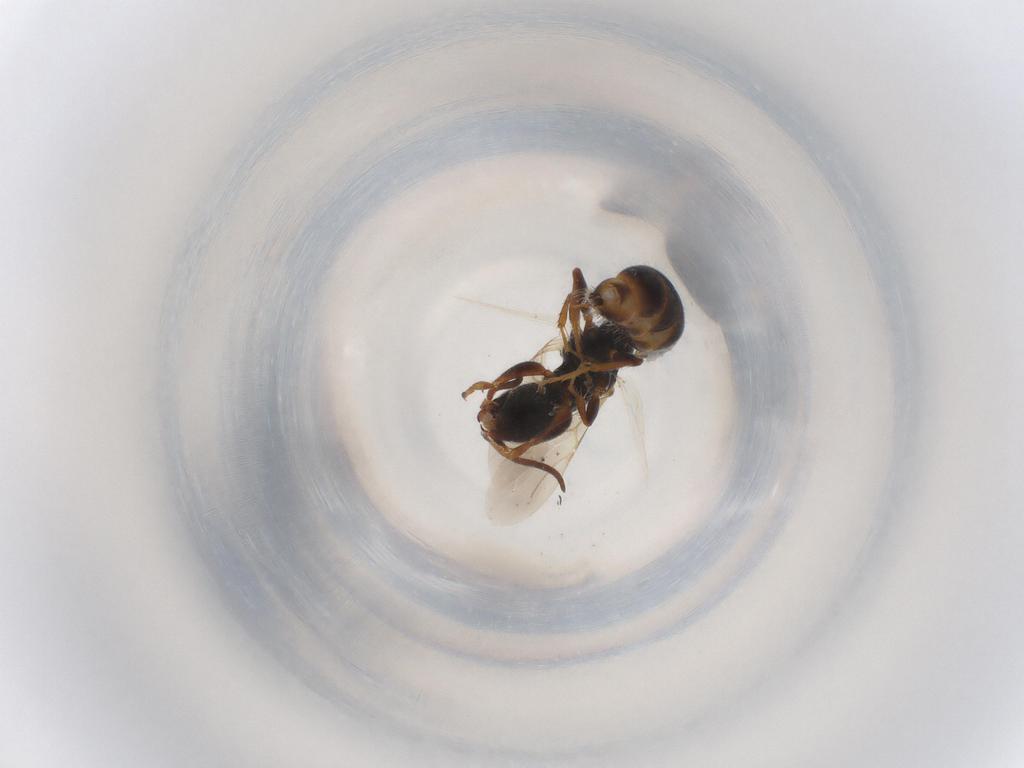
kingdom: Animalia
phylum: Arthropoda
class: Insecta
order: Hymenoptera
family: Bethylidae
